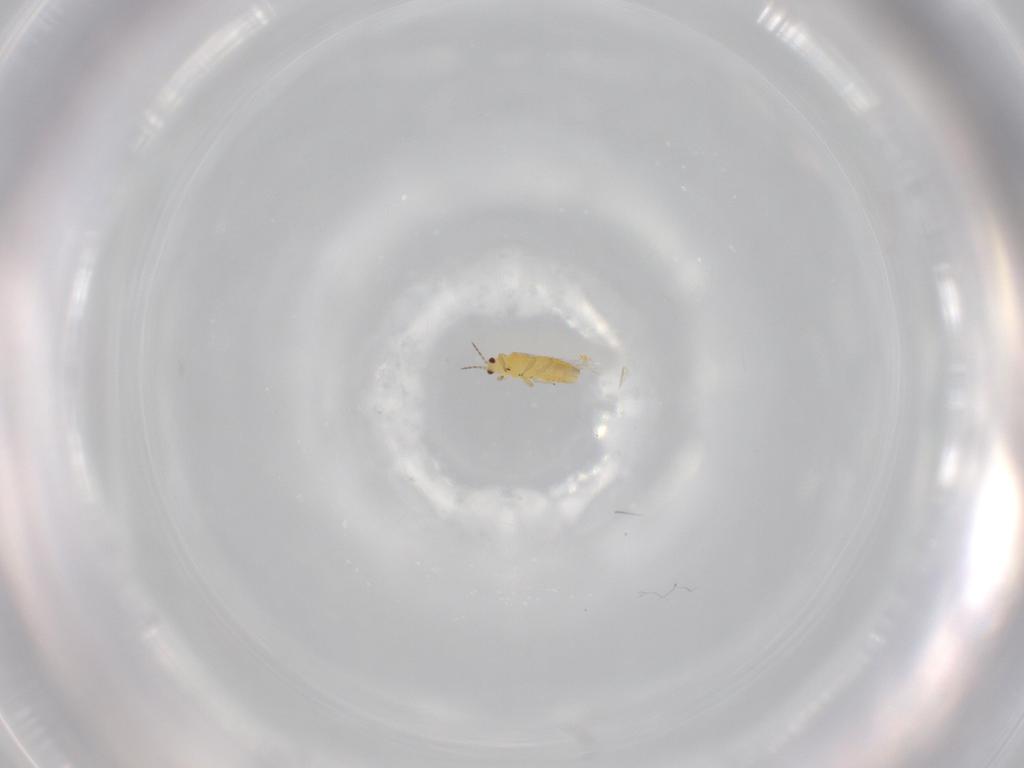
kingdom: Animalia
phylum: Arthropoda
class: Insecta
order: Thysanoptera
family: Thripidae
